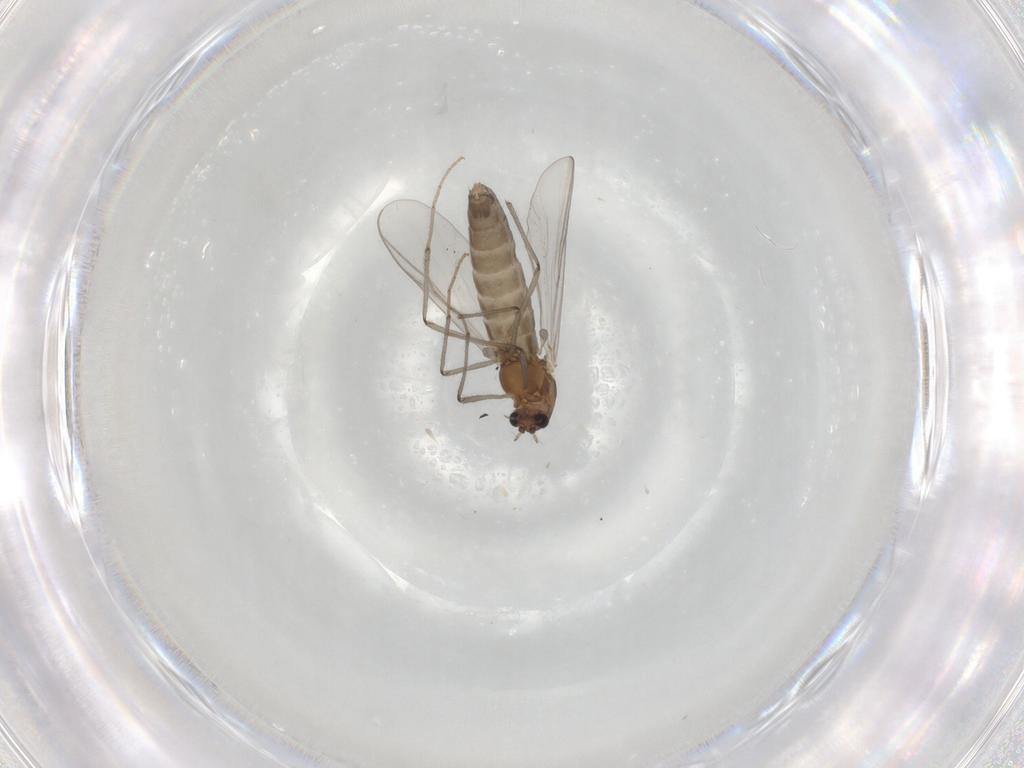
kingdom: Animalia
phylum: Arthropoda
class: Insecta
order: Diptera
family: Chironomidae
